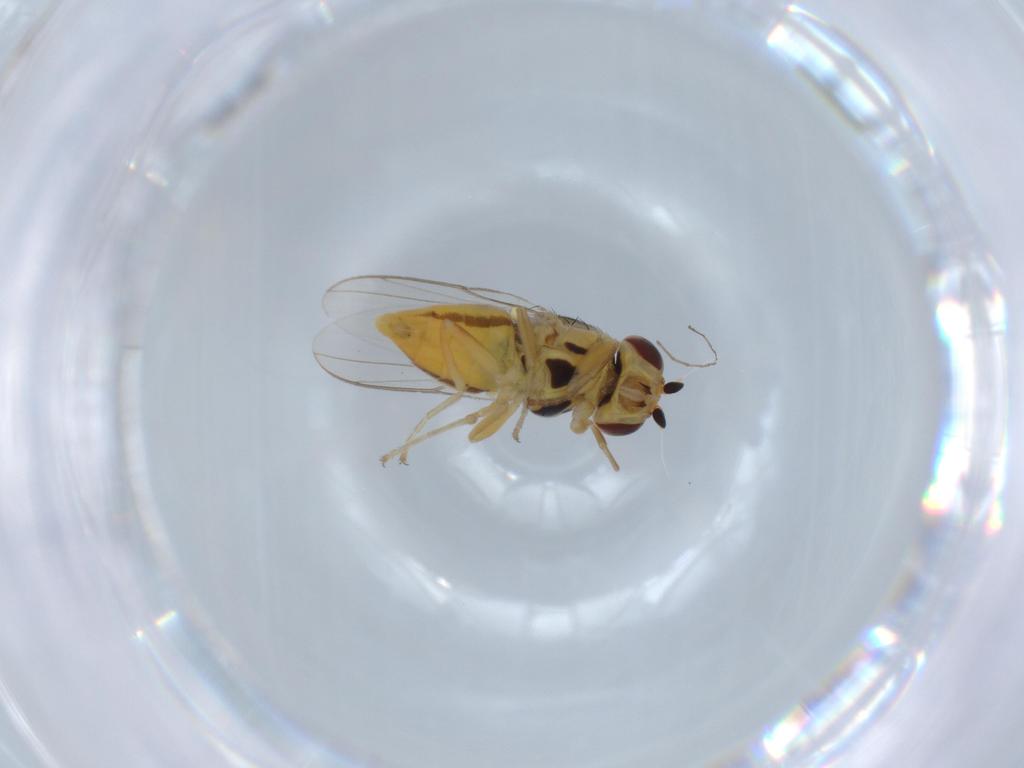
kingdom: Animalia
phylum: Arthropoda
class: Insecta
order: Diptera
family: Chloropidae
